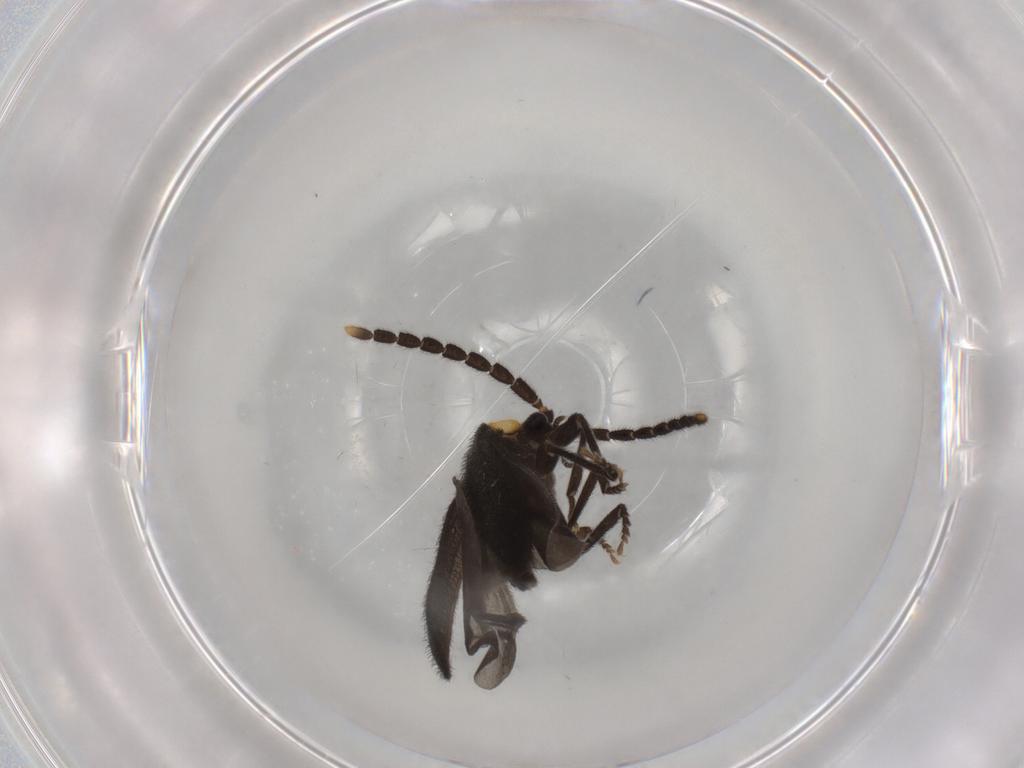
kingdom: Animalia
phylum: Arthropoda
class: Insecta
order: Coleoptera
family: Lycidae
